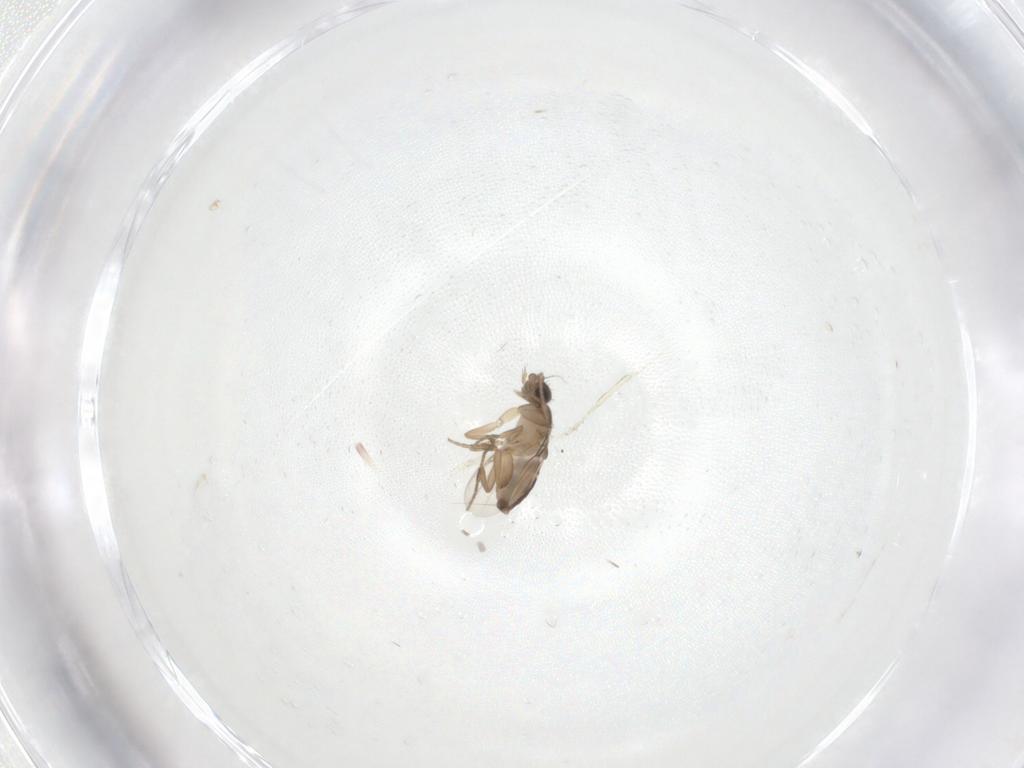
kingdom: Animalia
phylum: Arthropoda
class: Insecta
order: Diptera
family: Phoridae
